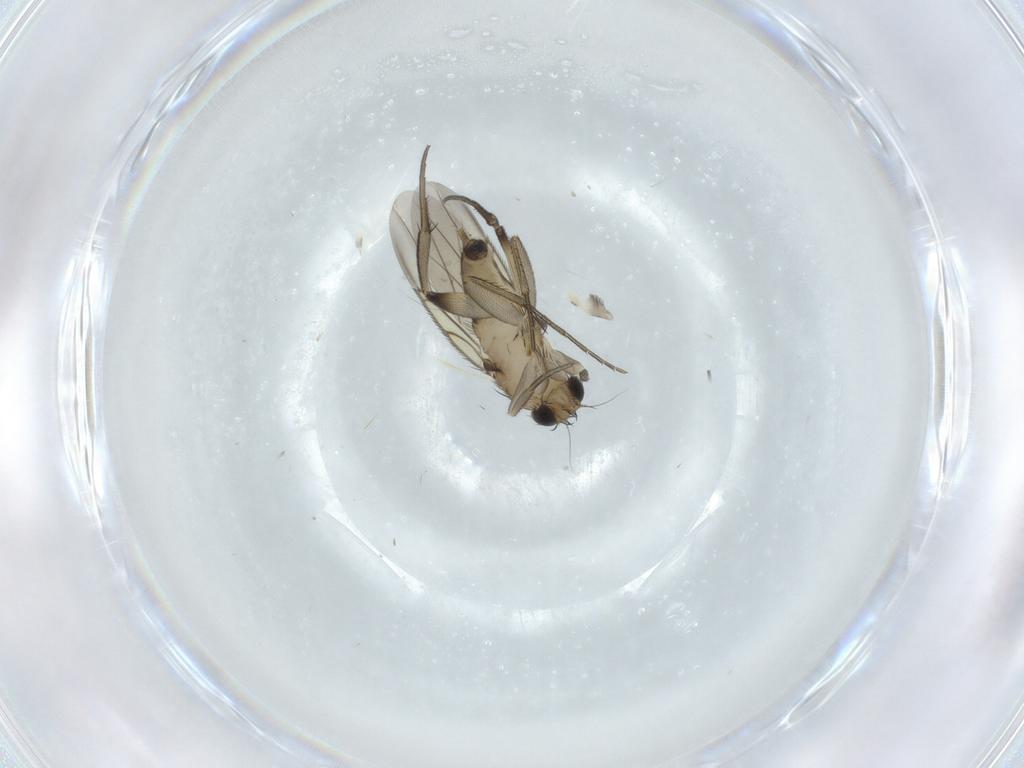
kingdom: Animalia
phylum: Arthropoda
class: Insecta
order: Diptera
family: Phoridae
